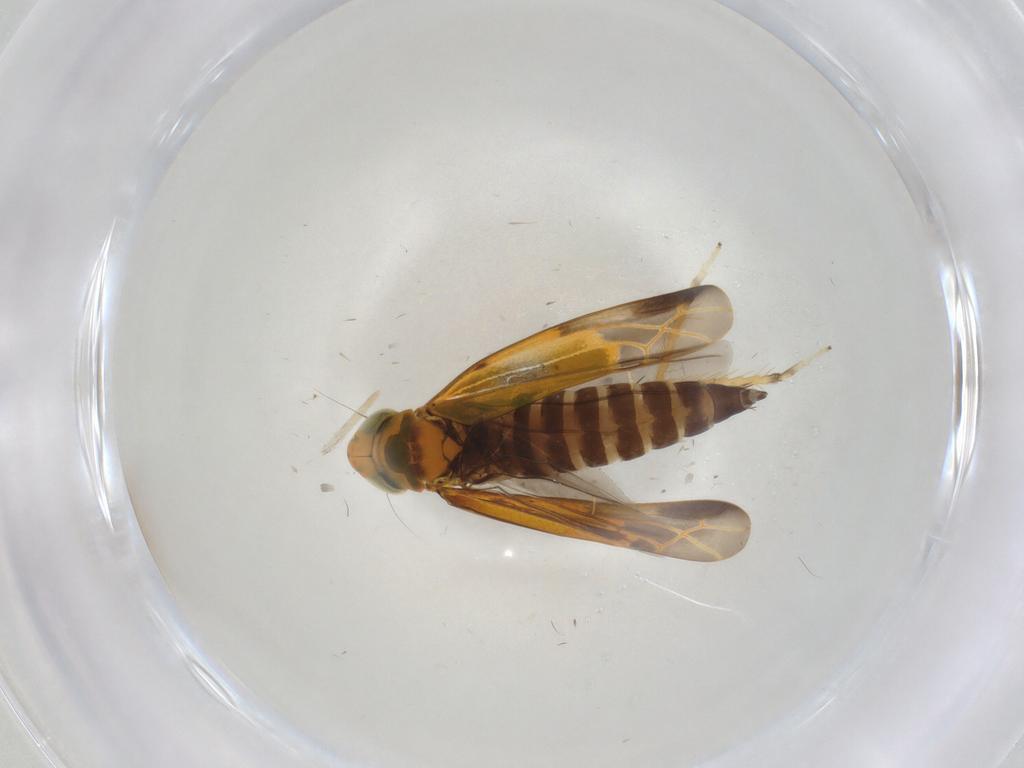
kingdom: Animalia
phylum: Arthropoda
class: Insecta
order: Hemiptera
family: Cicadellidae
